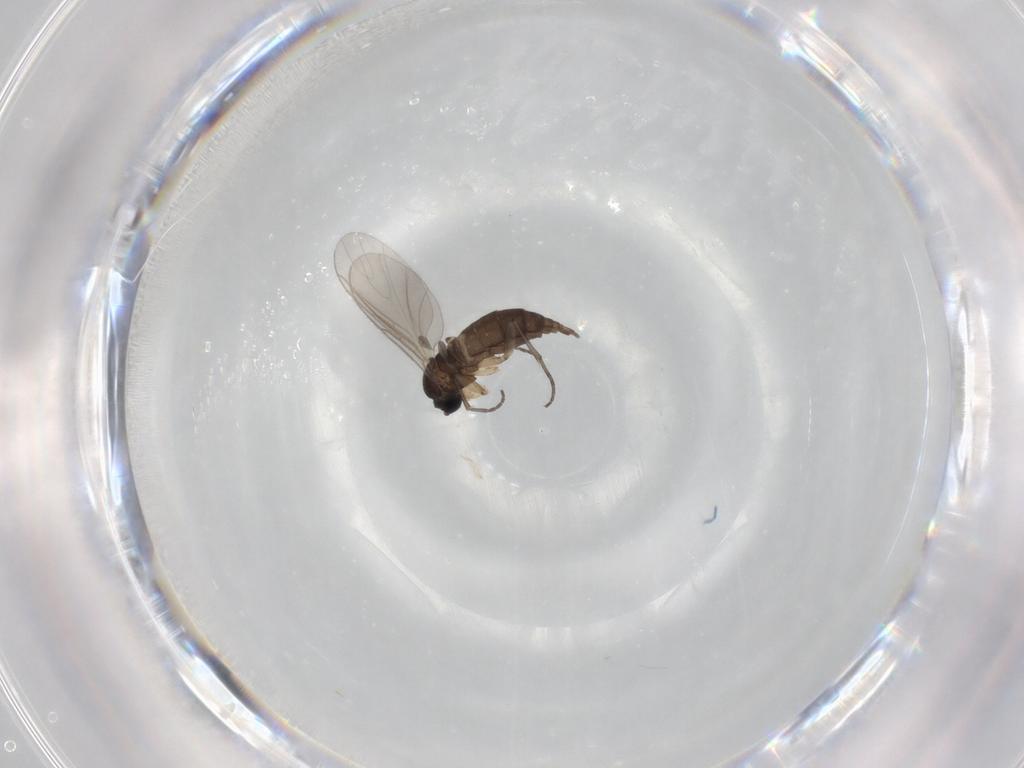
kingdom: Animalia
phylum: Arthropoda
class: Insecta
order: Diptera
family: Sciaridae
